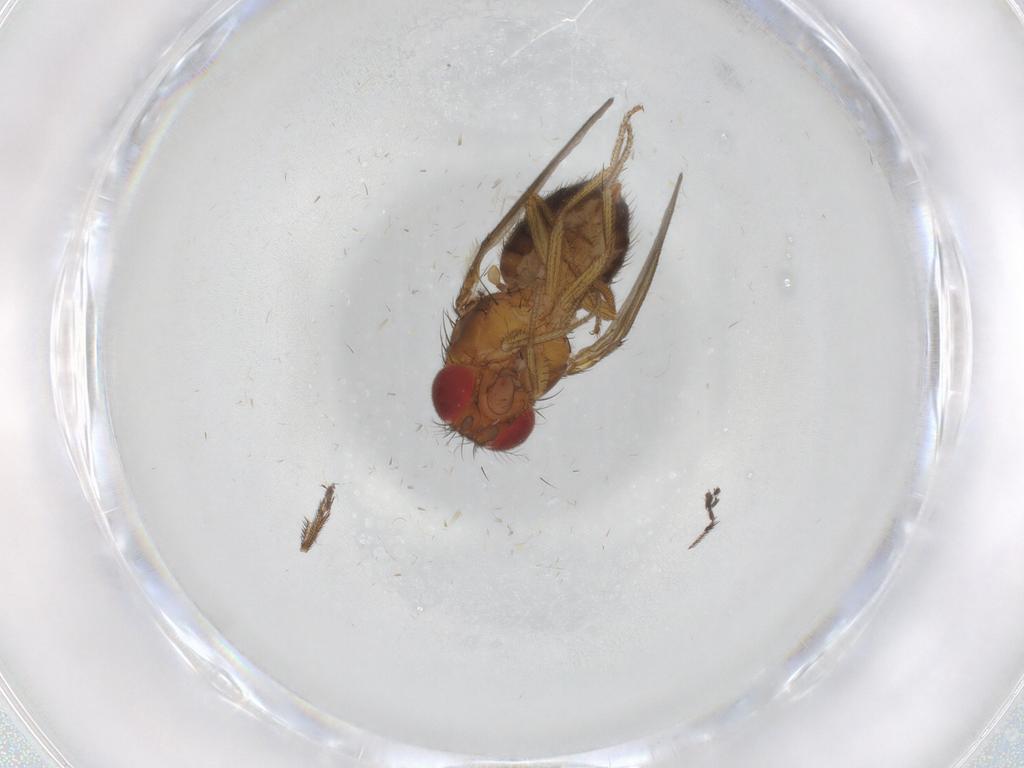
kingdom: Animalia
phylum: Arthropoda
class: Insecta
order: Diptera
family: Drosophilidae
